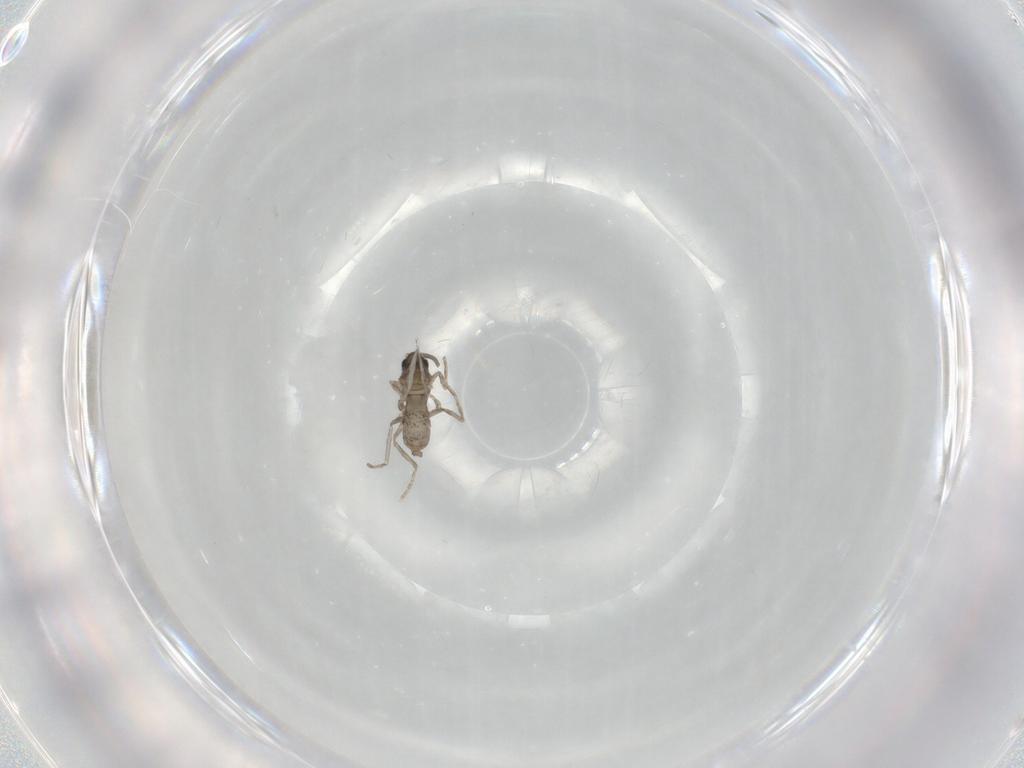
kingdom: Animalia
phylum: Arthropoda
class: Insecta
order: Diptera
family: Cecidomyiidae
